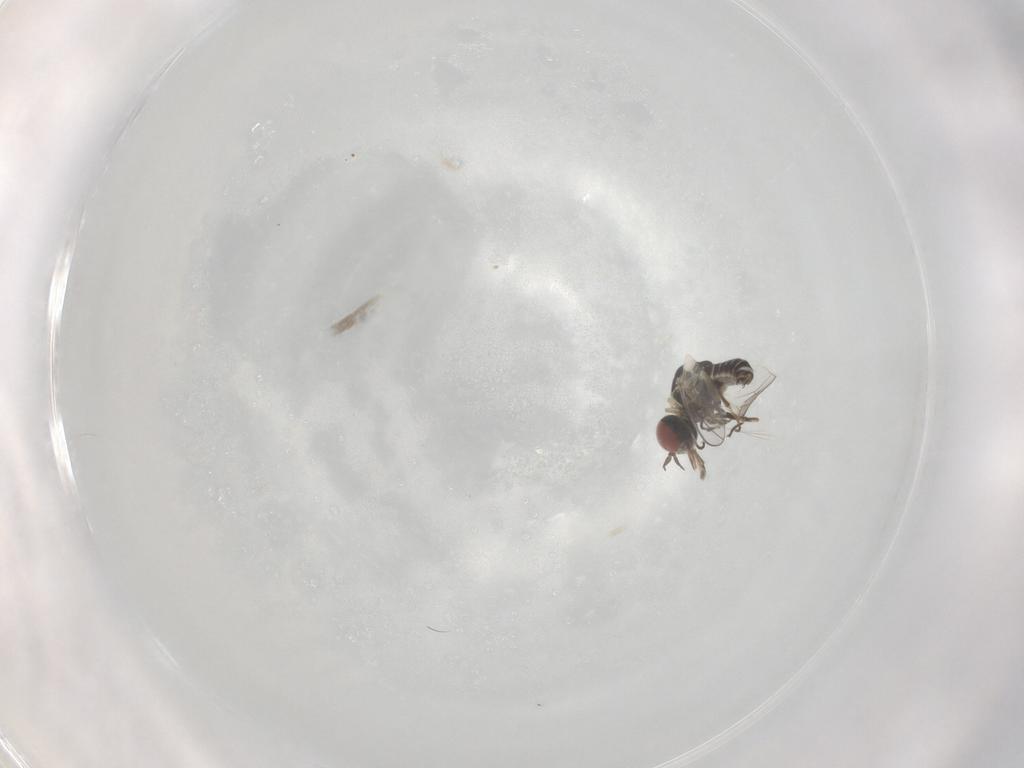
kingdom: Animalia
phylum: Arthropoda
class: Insecta
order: Diptera
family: Mythicomyiidae
